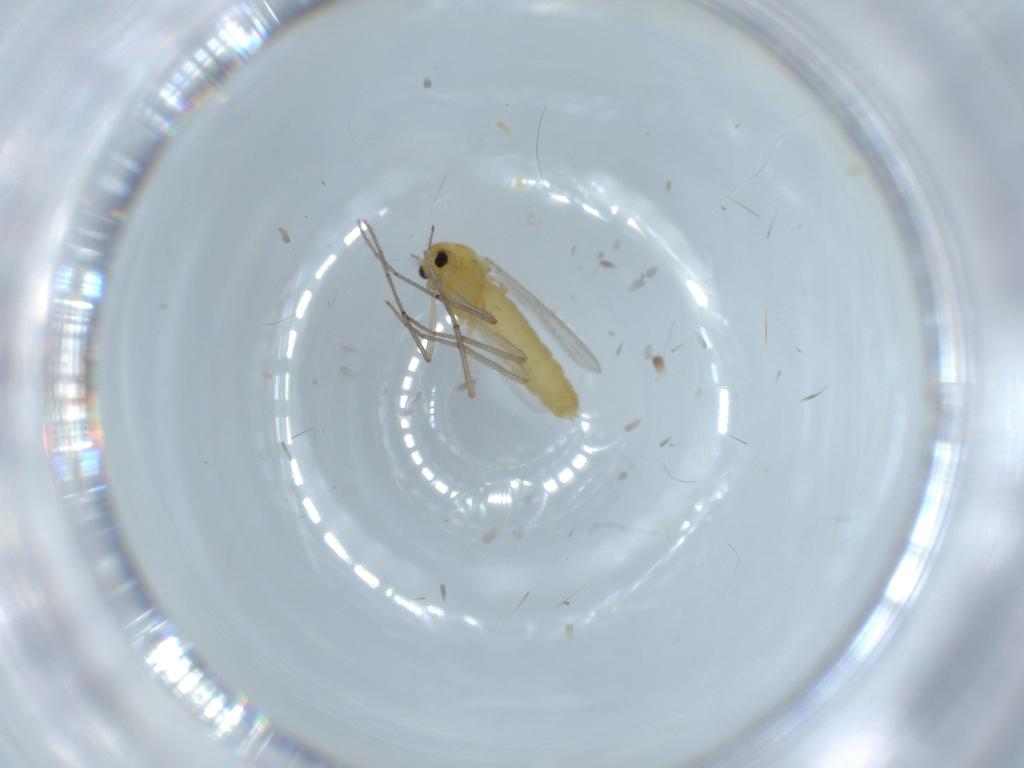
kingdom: Animalia
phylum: Arthropoda
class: Insecta
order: Diptera
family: Chironomidae
